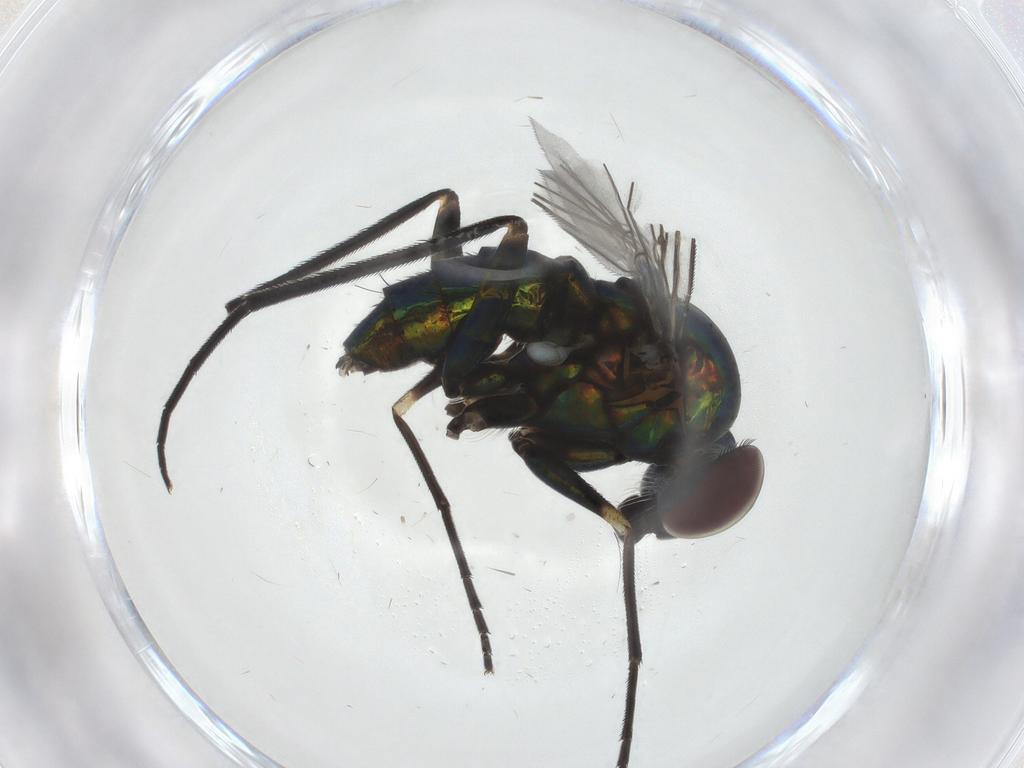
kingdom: Animalia
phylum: Arthropoda
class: Insecta
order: Diptera
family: Dolichopodidae
